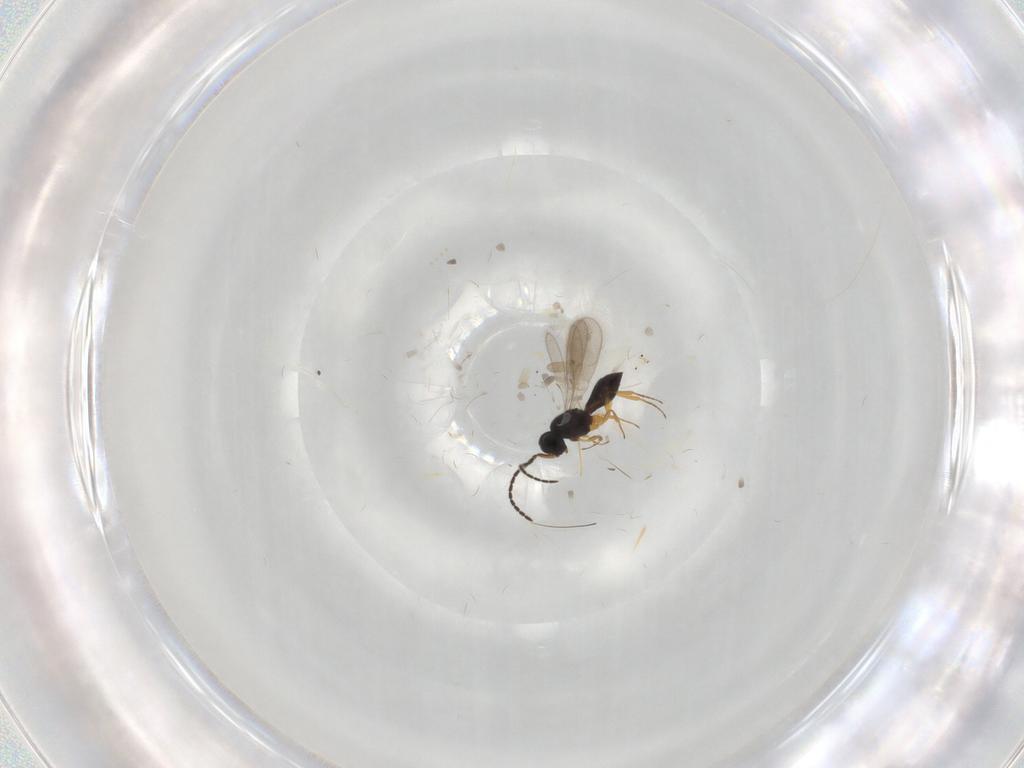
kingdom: Animalia
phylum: Arthropoda
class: Insecta
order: Hymenoptera
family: Scelionidae
